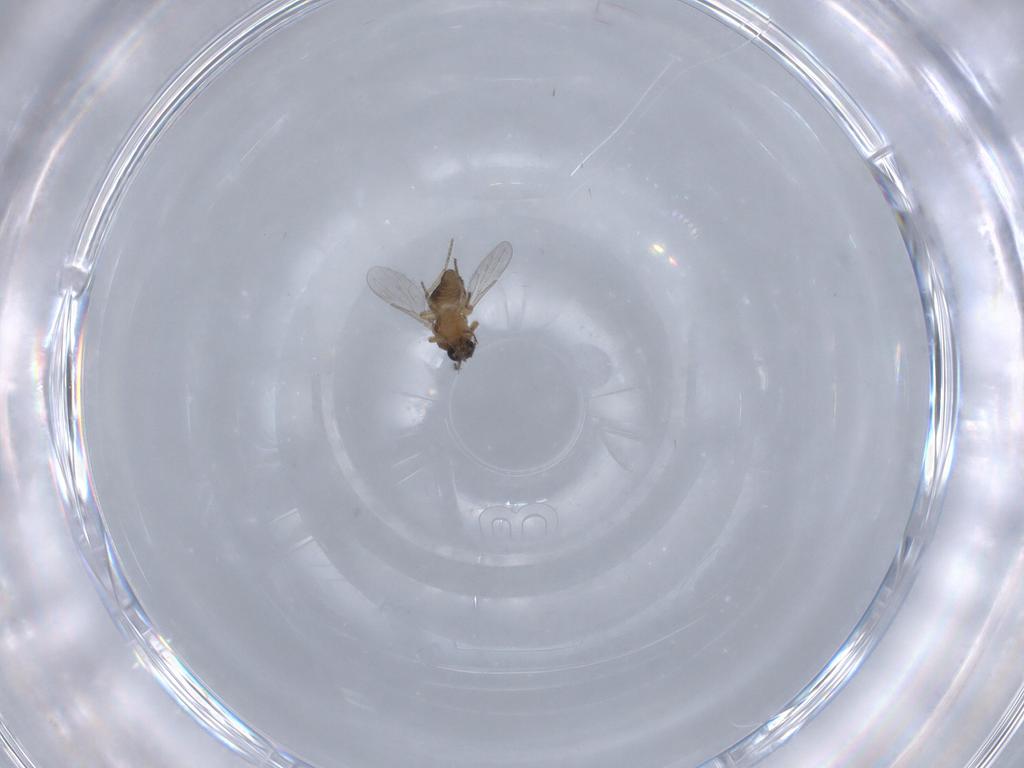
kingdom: Animalia
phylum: Arthropoda
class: Insecta
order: Diptera
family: Ceratopogonidae
